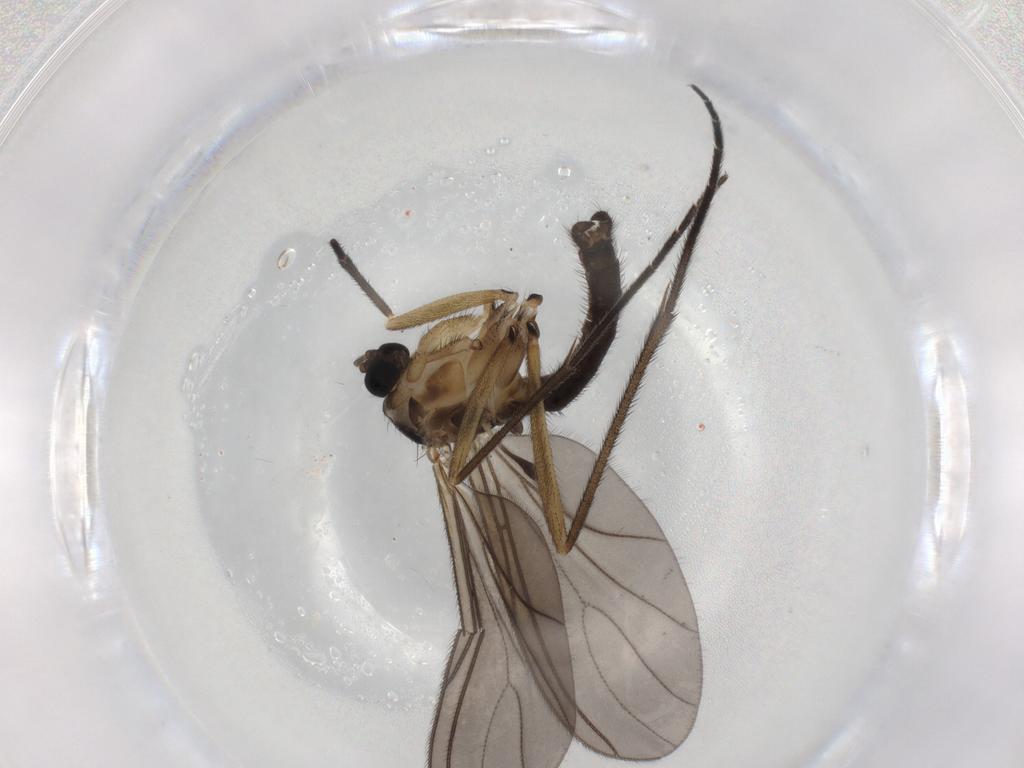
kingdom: Animalia
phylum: Arthropoda
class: Insecta
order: Diptera
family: Sciaridae
